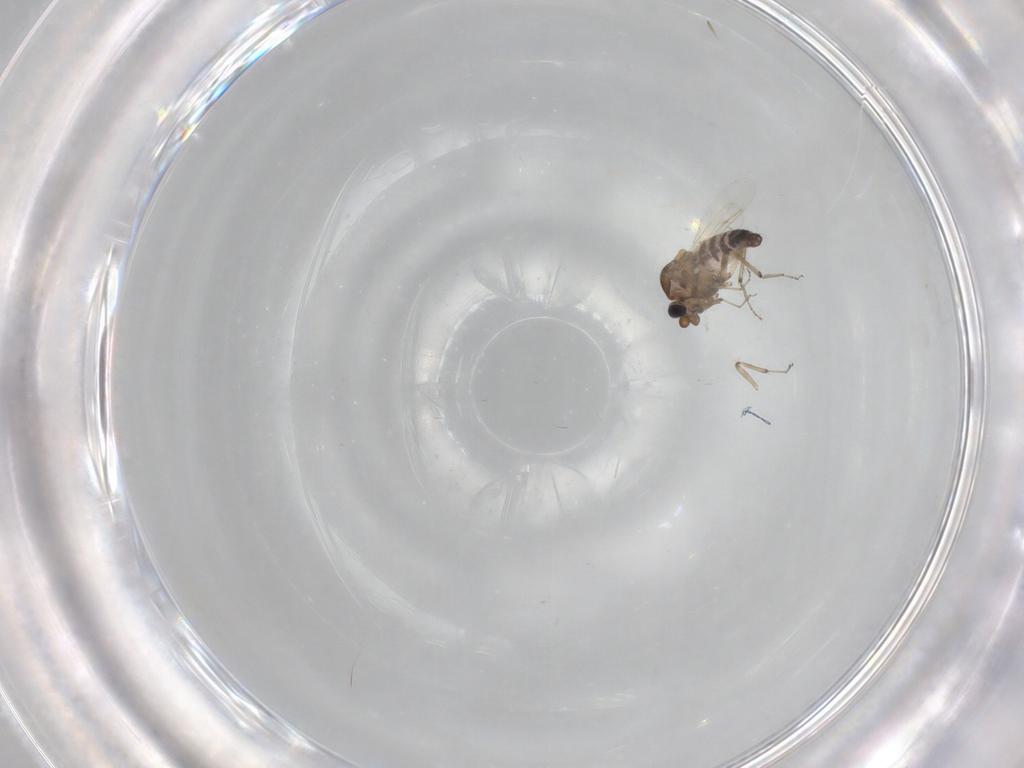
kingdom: Animalia
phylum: Arthropoda
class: Insecta
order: Diptera
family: Ceratopogonidae
